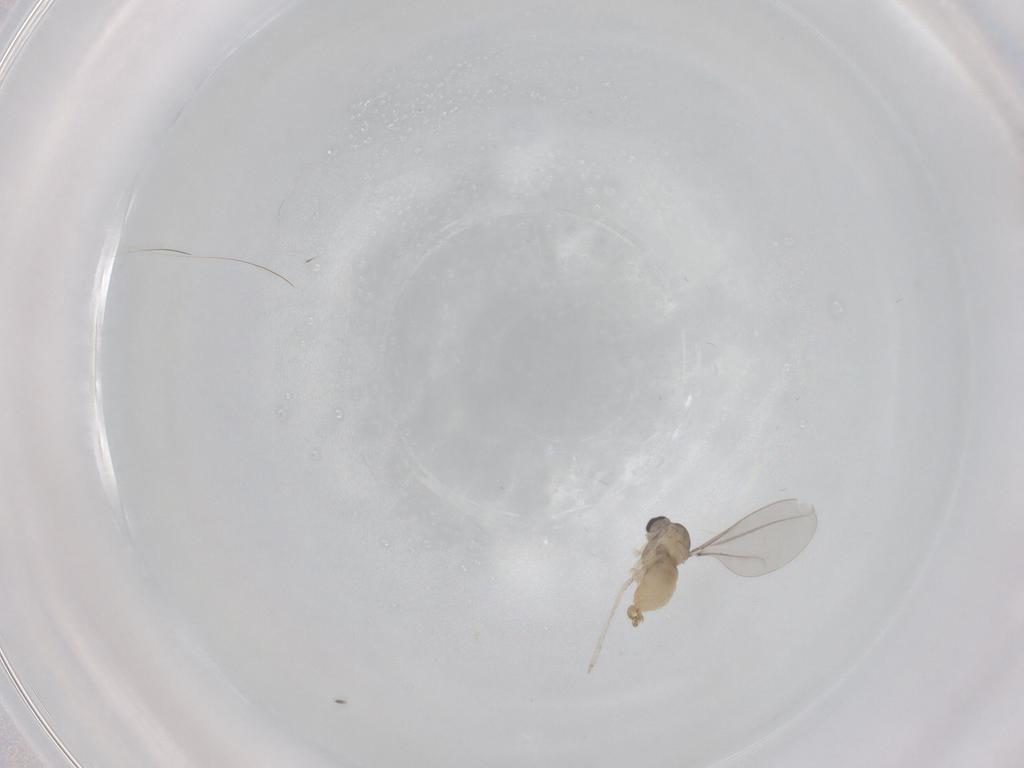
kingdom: Animalia
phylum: Arthropoda
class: Insecta
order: Diptera
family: Cecidomyiidae
